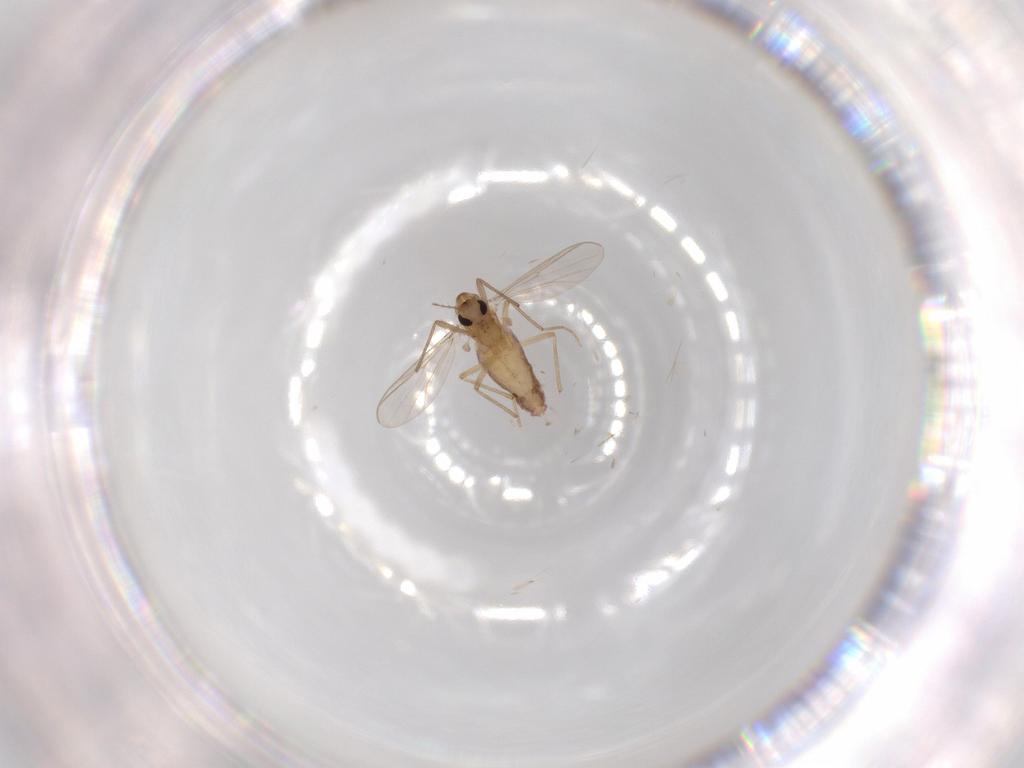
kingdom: Animalia
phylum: Arthropoda
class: Insecta
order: Diptera
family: Chironomidae
